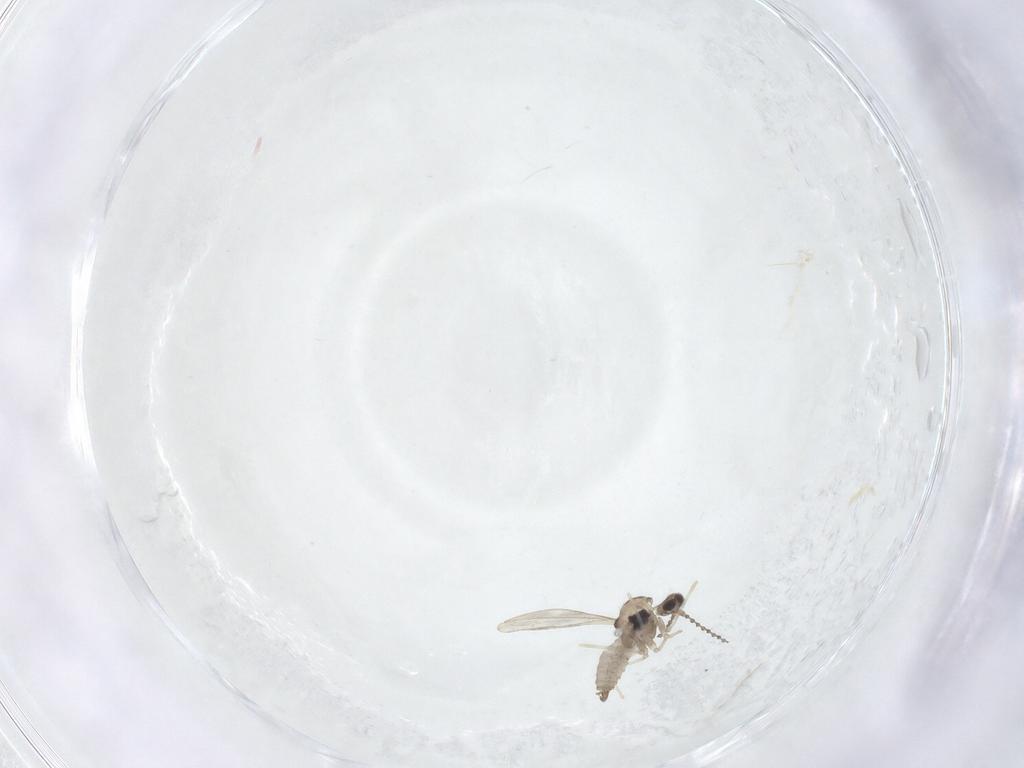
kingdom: Animalia
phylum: Arthropoda
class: Insecta
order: Diptera
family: Cecidomyiidae
